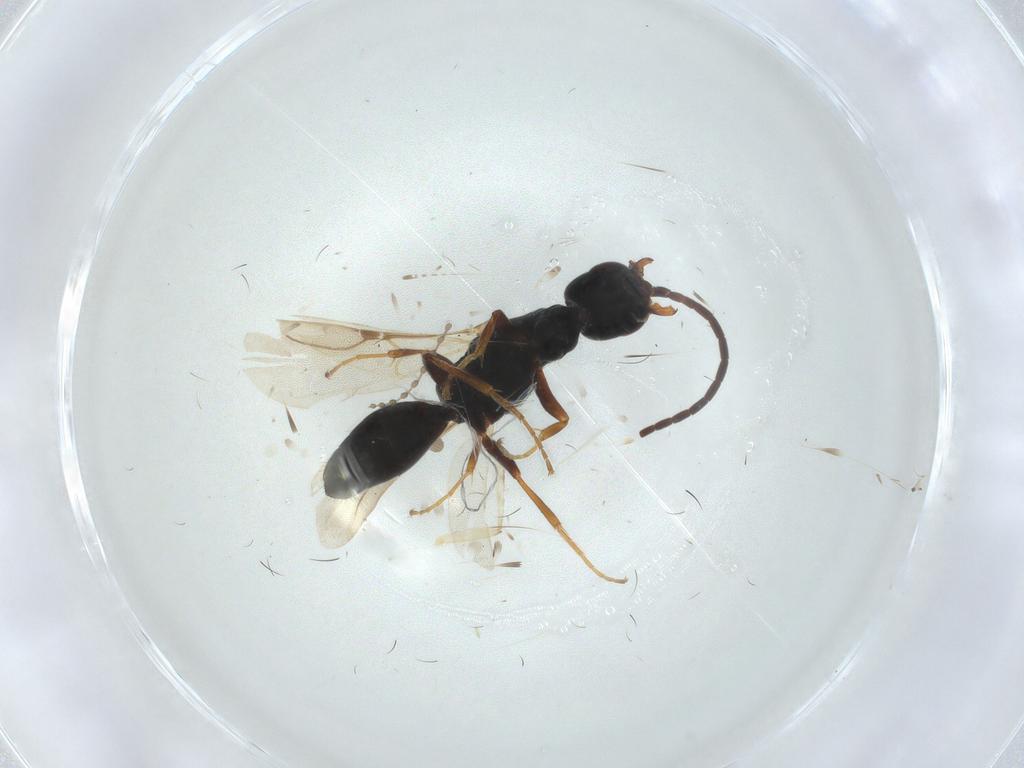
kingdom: Animalia
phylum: Arthropoda
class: Insecta
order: Hymenoptera
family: Bethylidae
